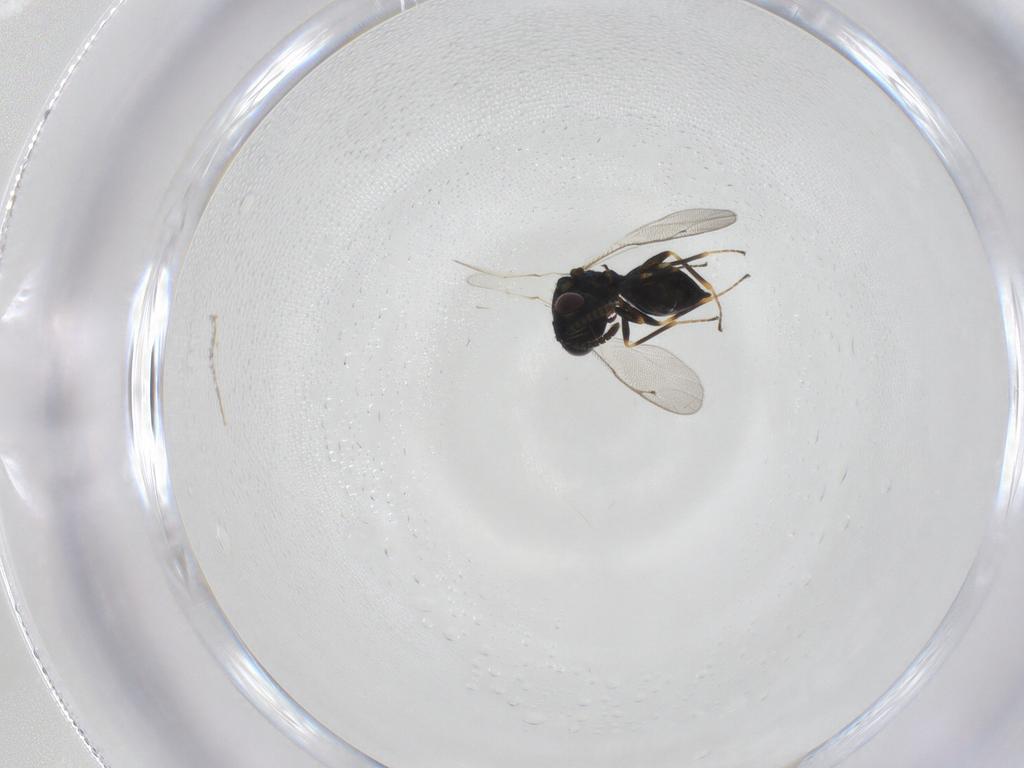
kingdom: Animalia
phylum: Arthropoda
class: Insecta
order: Hymenoptera
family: Pteromalidae
